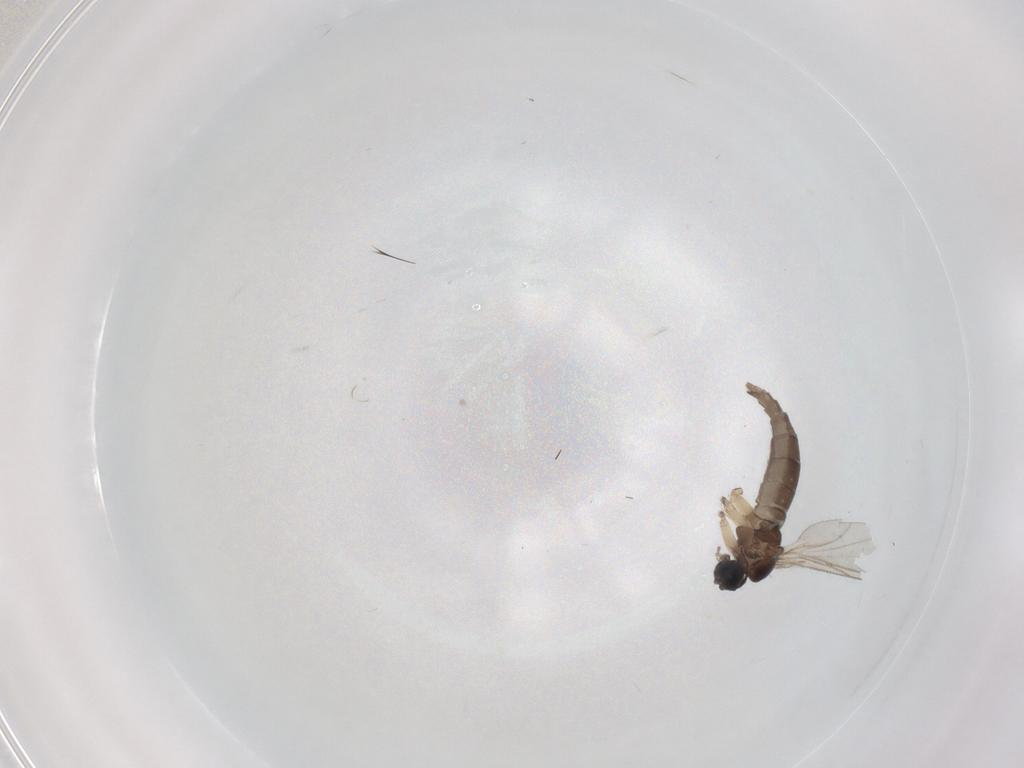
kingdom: Animalia
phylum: Arthropoda
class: Insecta
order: Diptera
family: Sciaridae
